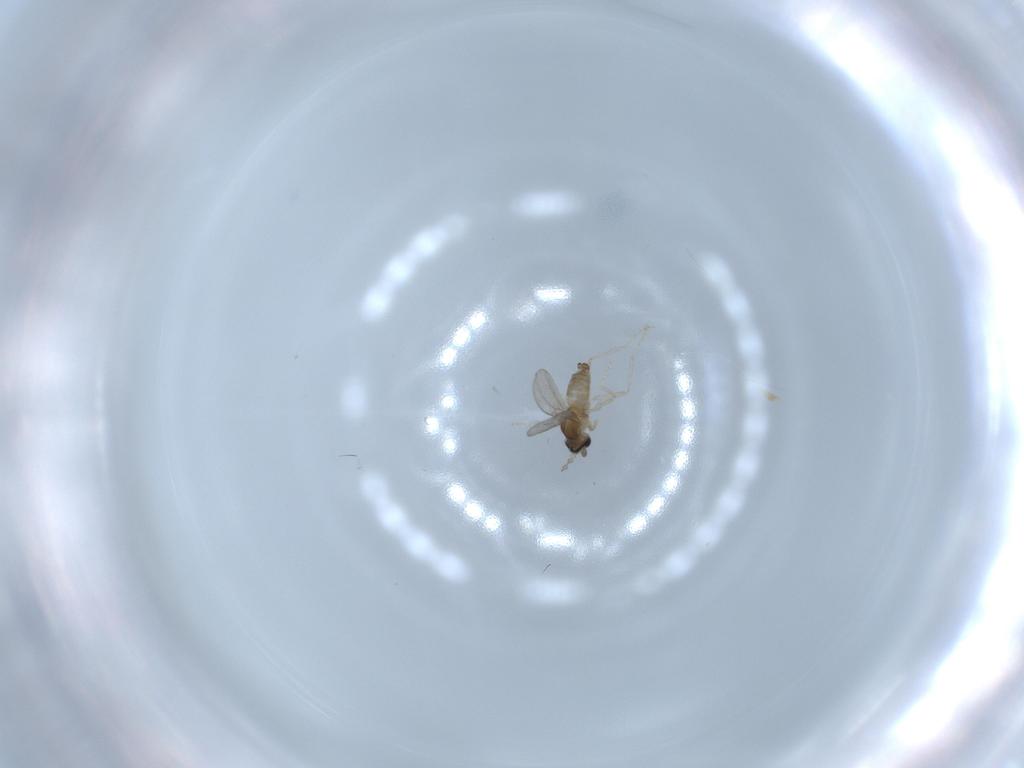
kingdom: Animalia
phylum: Arthropoda
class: Insecta
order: Diptera
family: Cecidomyiidae
